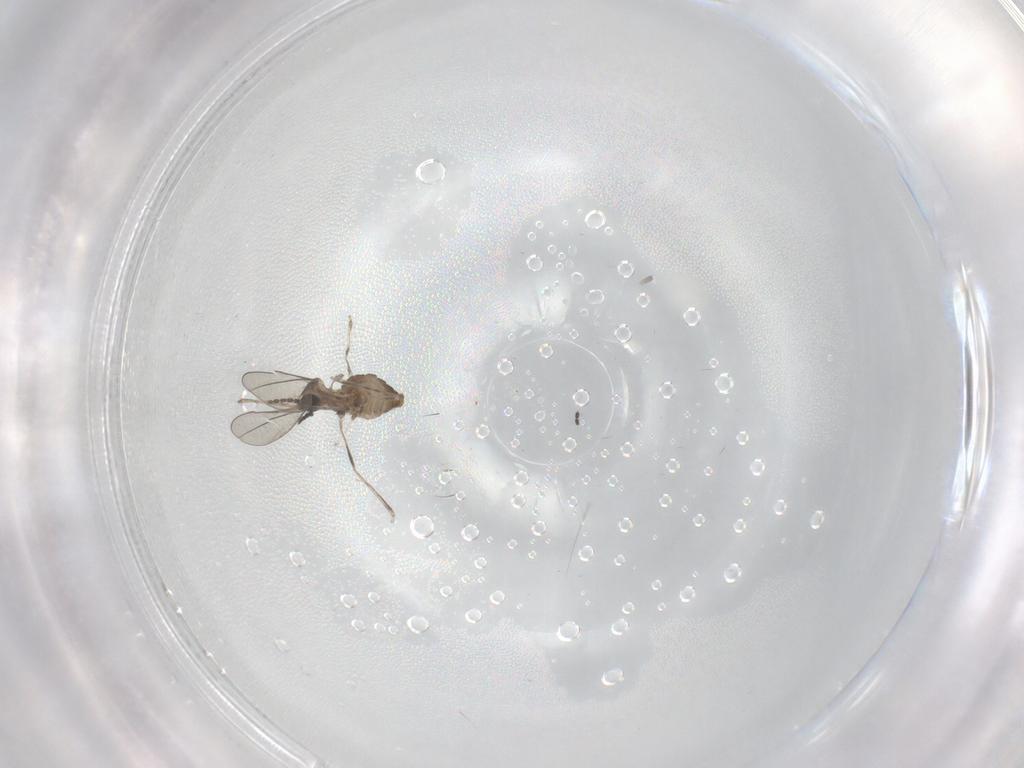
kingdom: Animalia
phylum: Arthropoda
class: Insecta
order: Diptera
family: Cecidomyiidae
